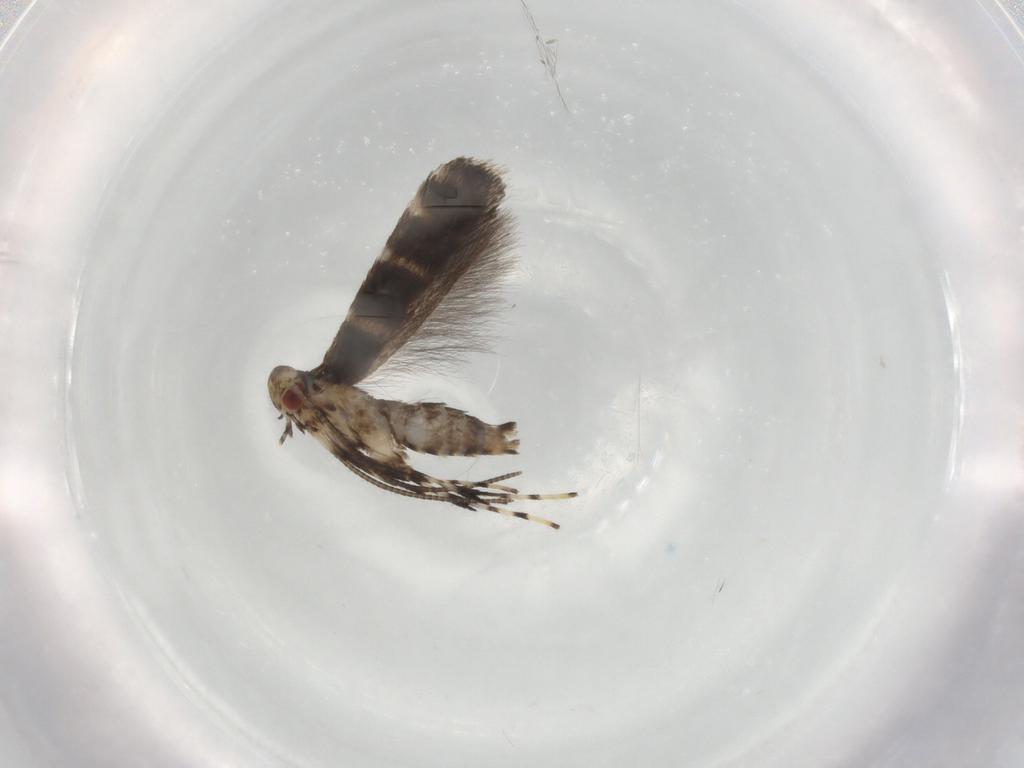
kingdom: Animalia
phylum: Arthropoda
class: Insecta
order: Lepidoptera
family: Gracillariidae
